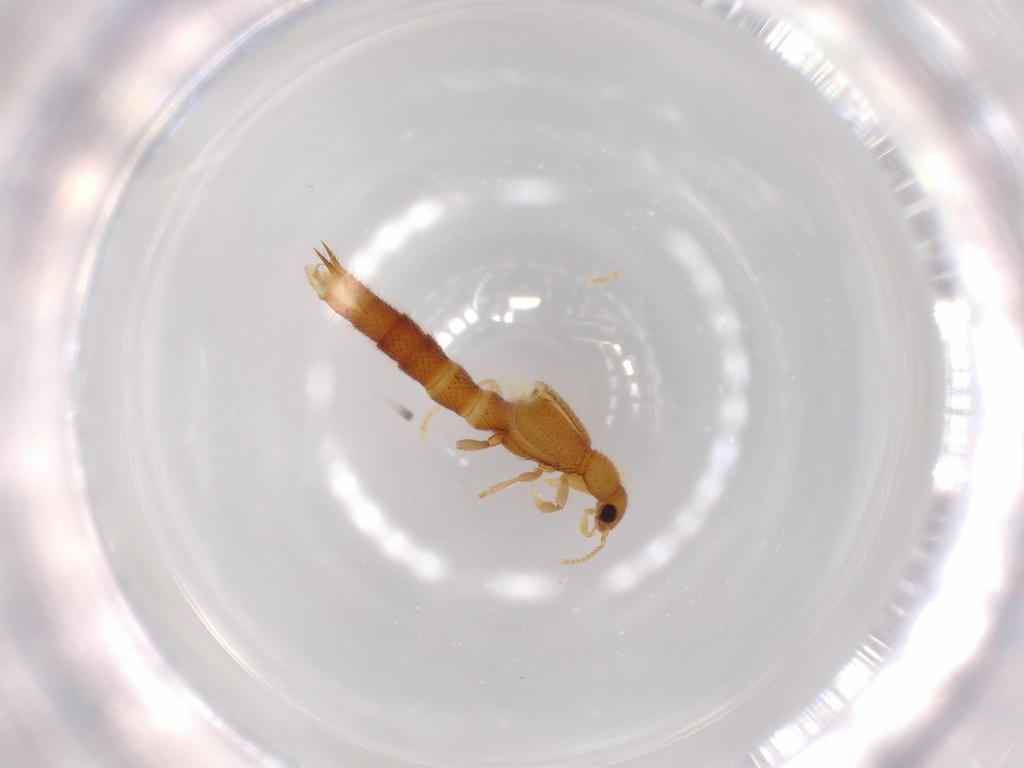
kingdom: Animalia
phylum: Arthropoda
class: Insecta
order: Coleoptera
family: Staphylinidae
